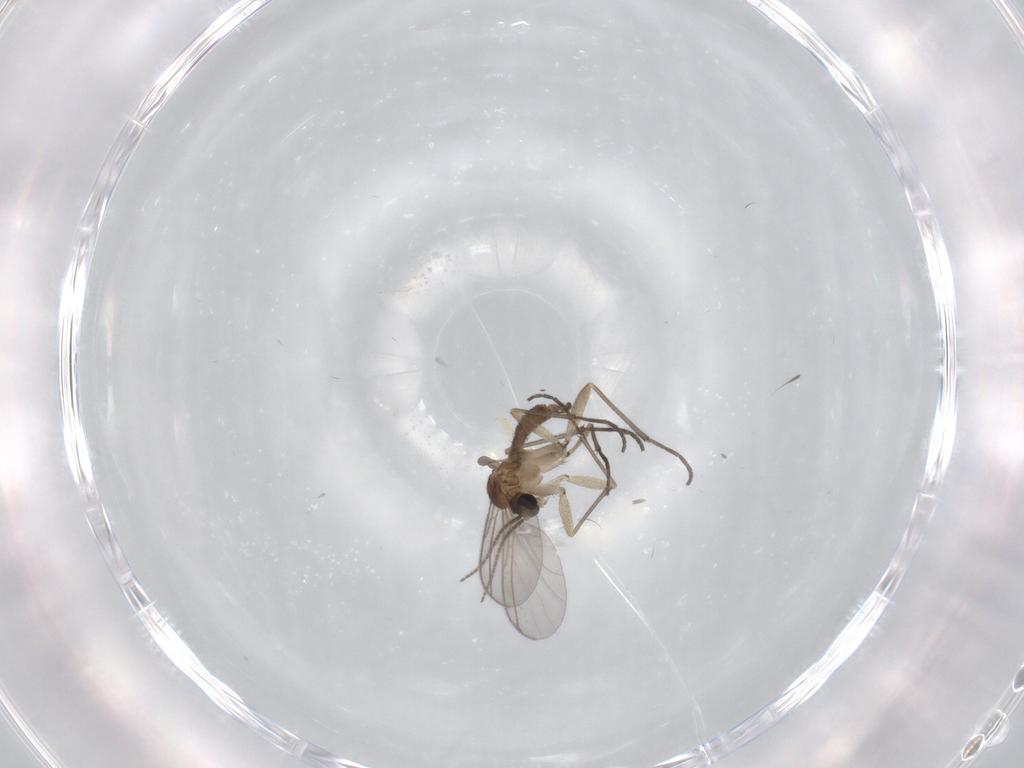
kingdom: Animalia
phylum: Arthropoda
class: Insecta
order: Diptera
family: Sciaridae
